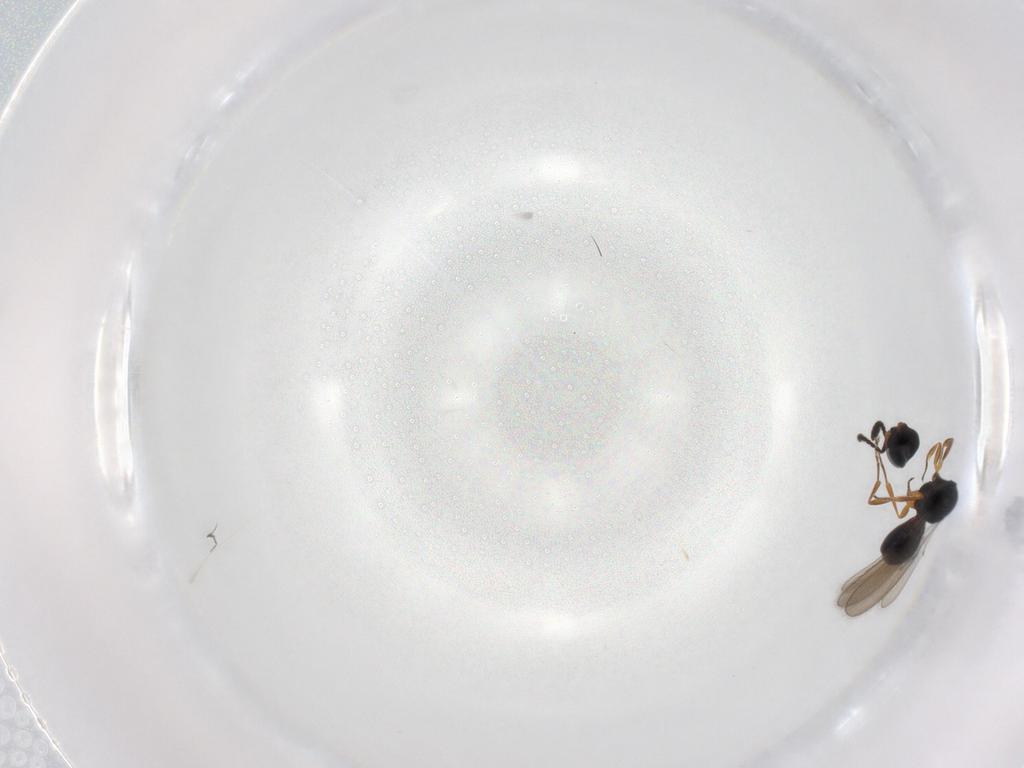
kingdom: Animalia
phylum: Arthropoda
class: Insecta
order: Hymenoptera
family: Scelionidae
